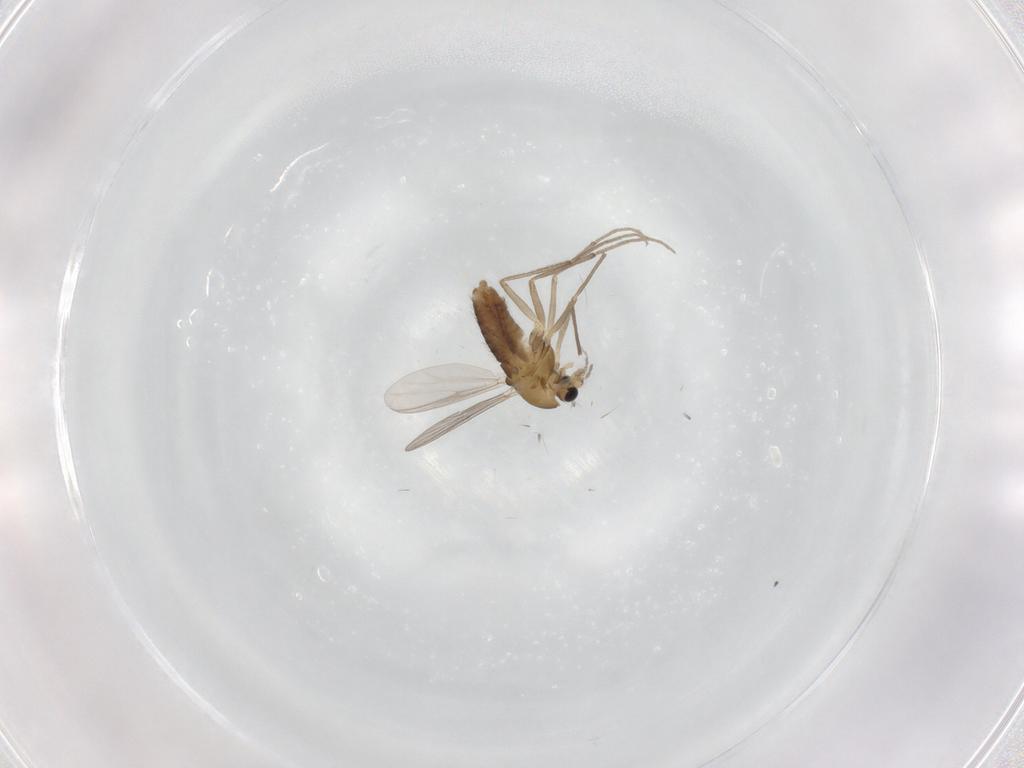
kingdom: Animalia
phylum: Arthropoda
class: Insecta
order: Diptera
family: Chironomidae
